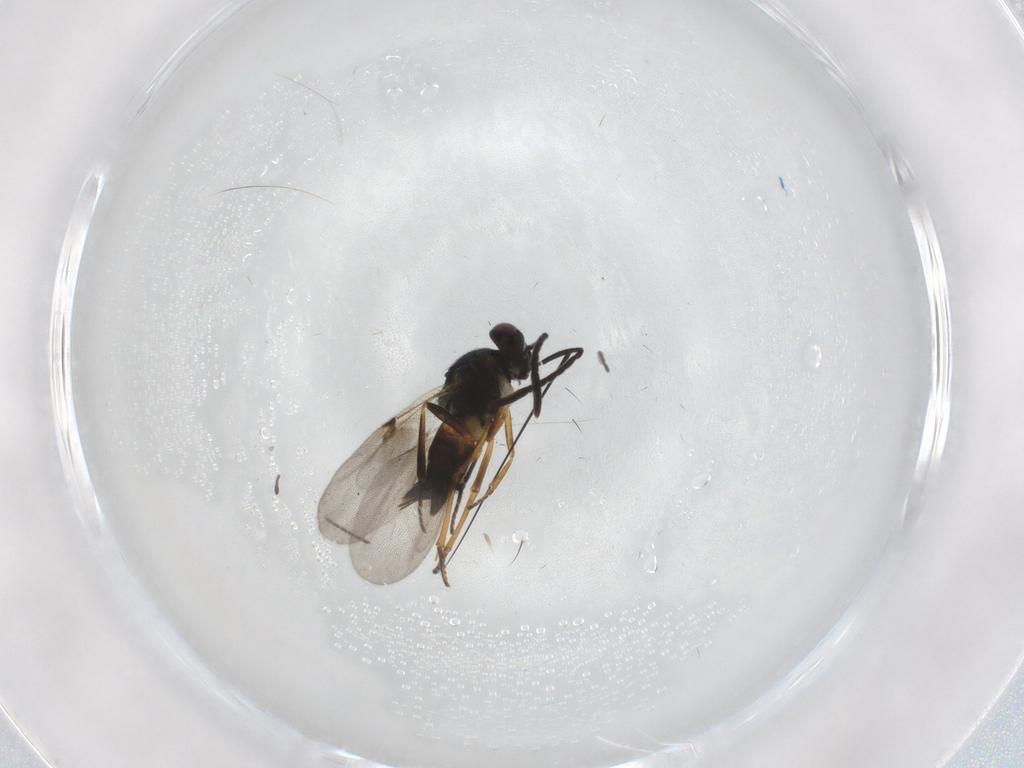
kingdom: Animalia
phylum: Arthropoda
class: Insecta
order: Hymenoptera
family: Encyrtidae
